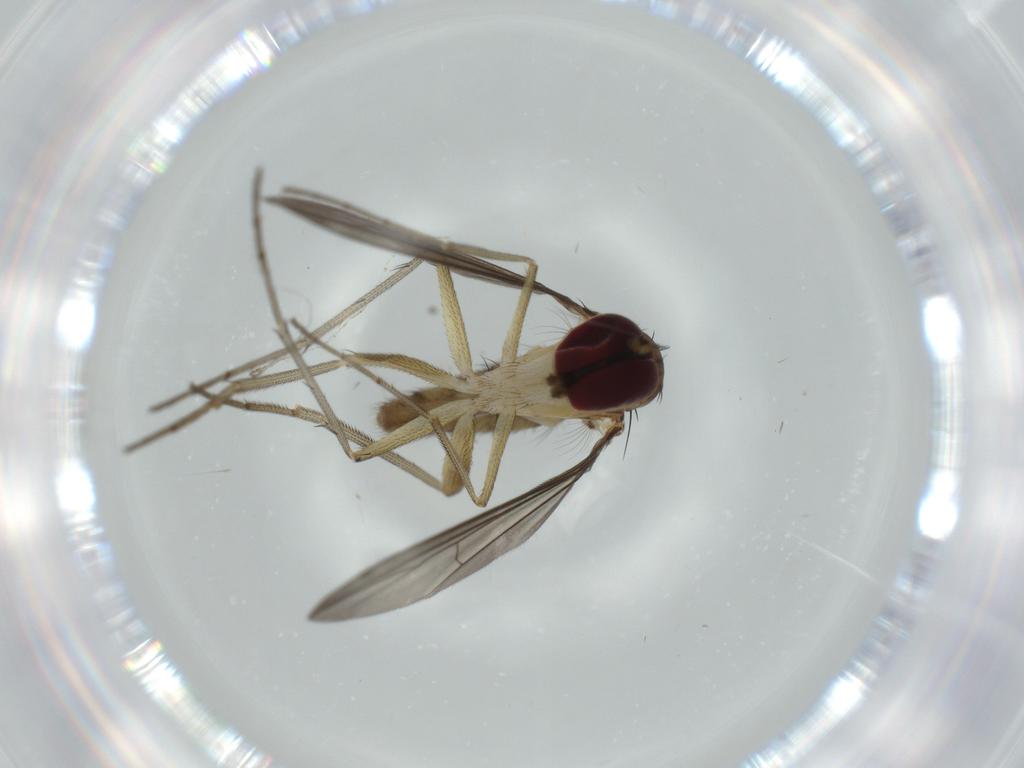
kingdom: Animalia
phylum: Arthropoda
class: Insecta
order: Diptera
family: Dolichopodidae
